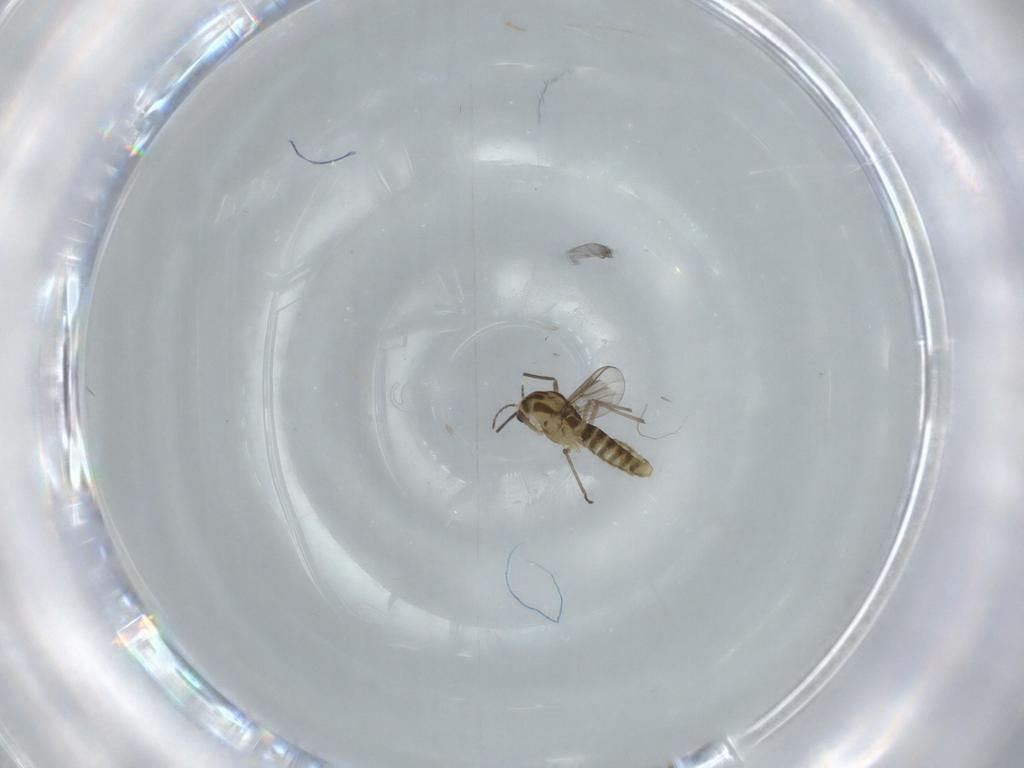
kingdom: Animalia
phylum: Arthropoda
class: Insecta
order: Diptera
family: Chironomidae
